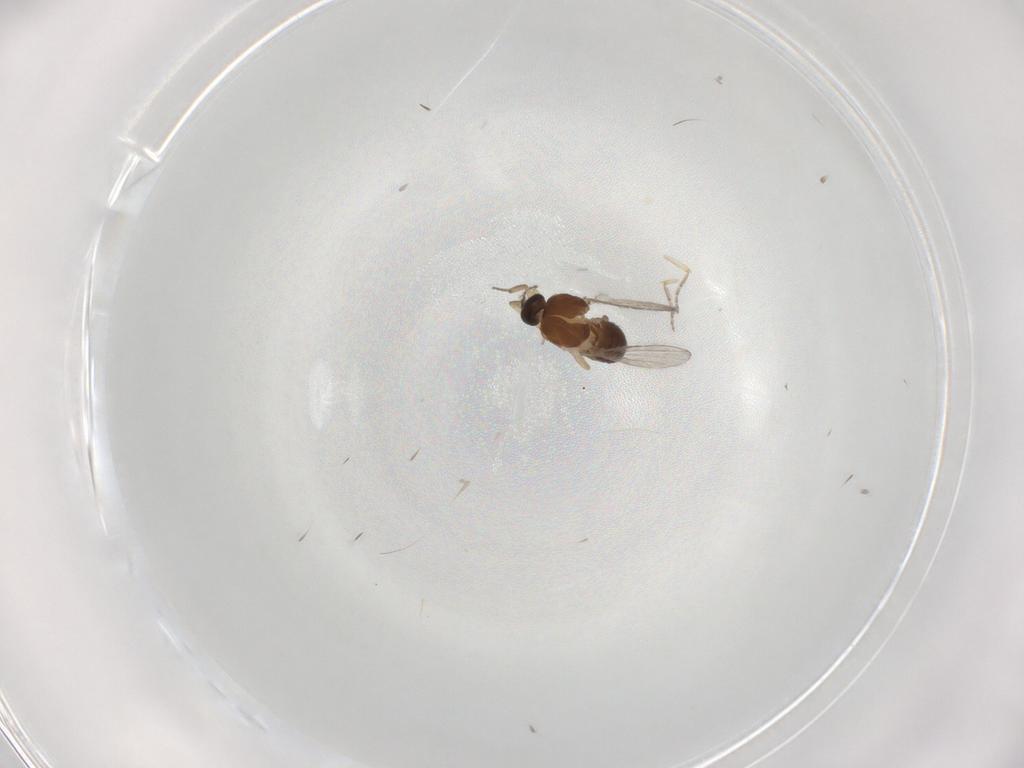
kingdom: Animalia
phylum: Arthropoda
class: Insecta
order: Diptera
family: Ceratopogonidae
